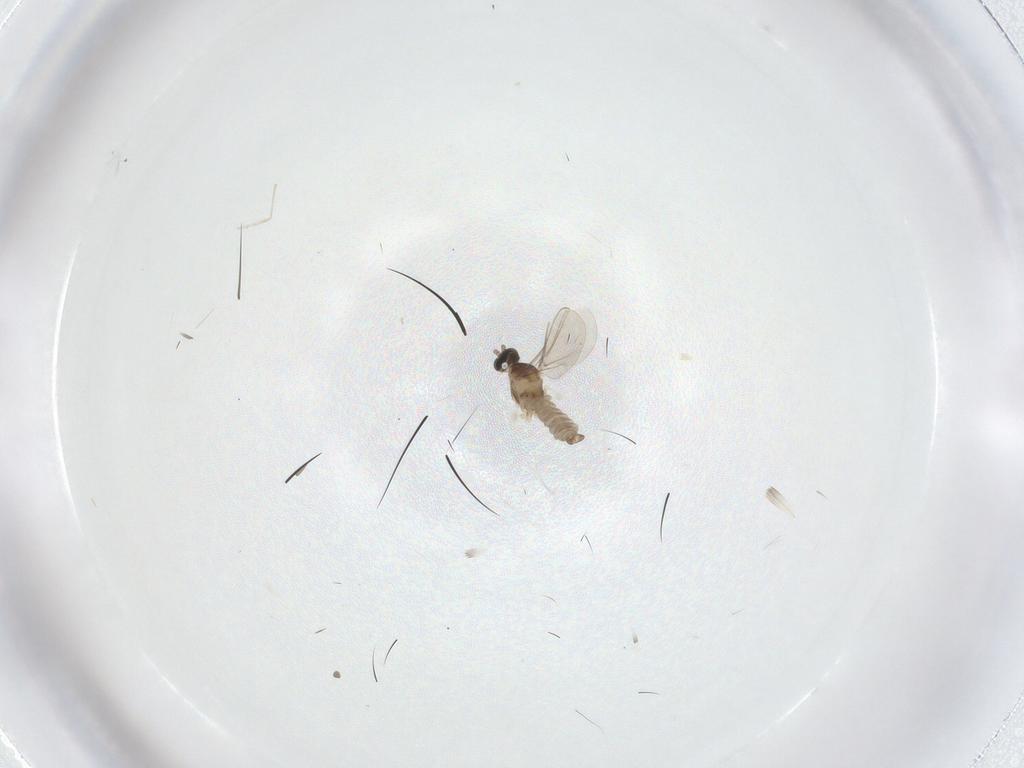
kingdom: Animalia
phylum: Arthropoda
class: Insecta
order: Diptera
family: Cecidomyiidae
